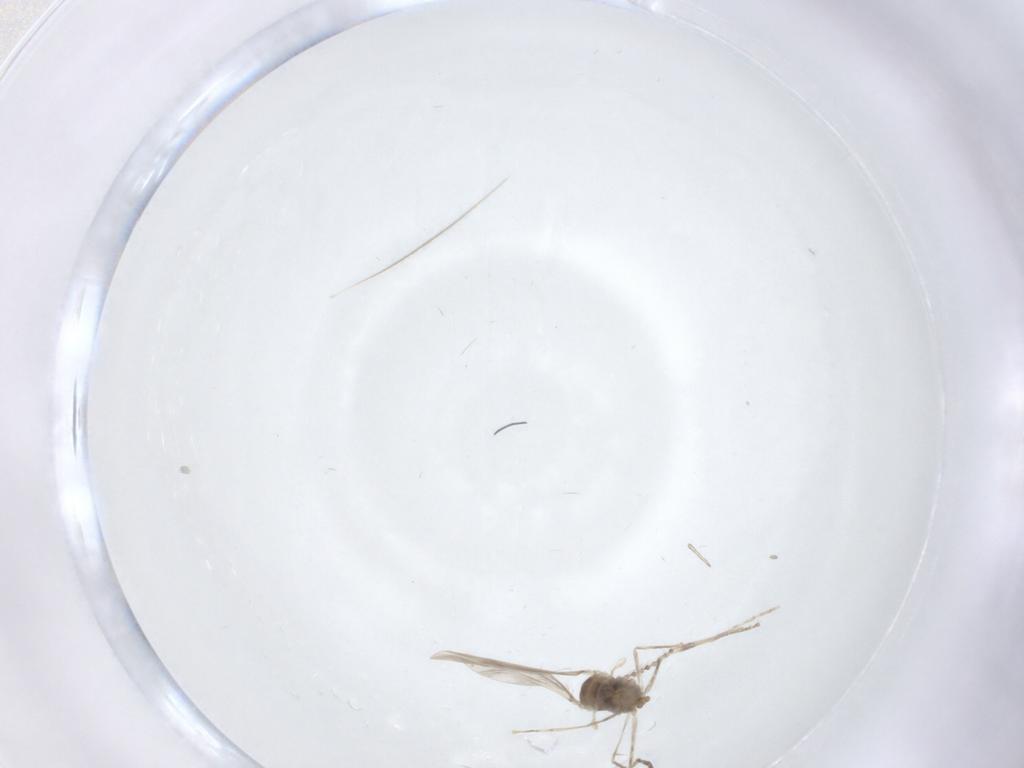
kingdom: Animalia
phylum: Arthropoda
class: Insecta
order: Diptera
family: Cecidomyiidae
